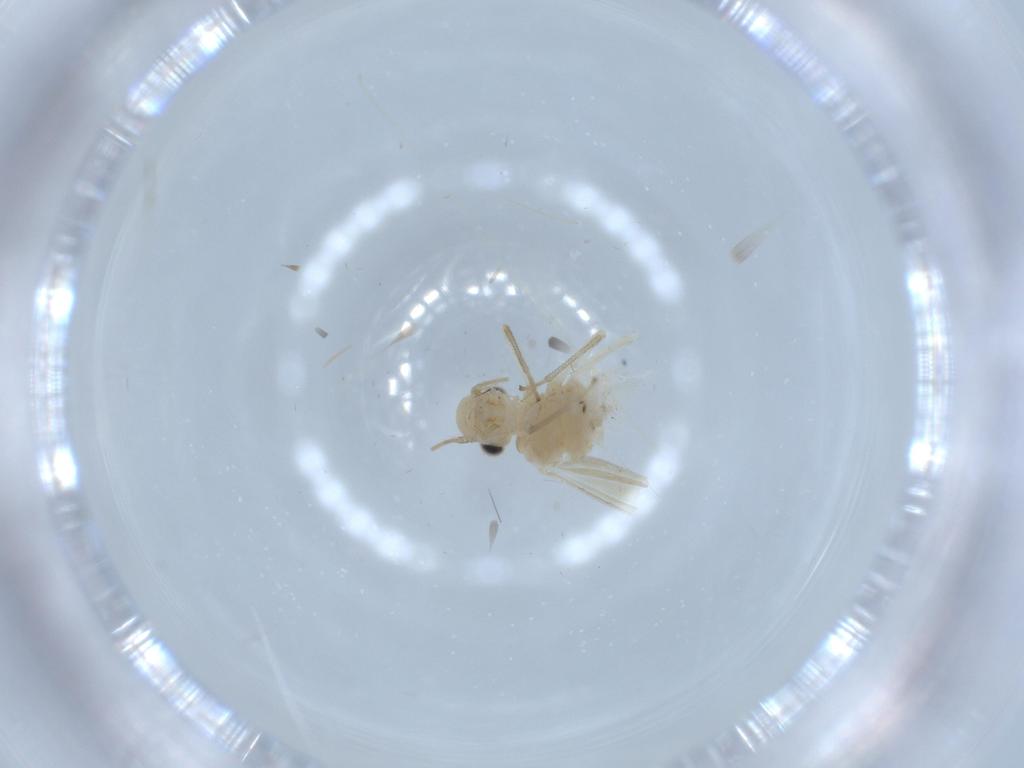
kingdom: Animalia
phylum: Arthropoda
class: Insecta
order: Psocodea
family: Caeciliusidae
